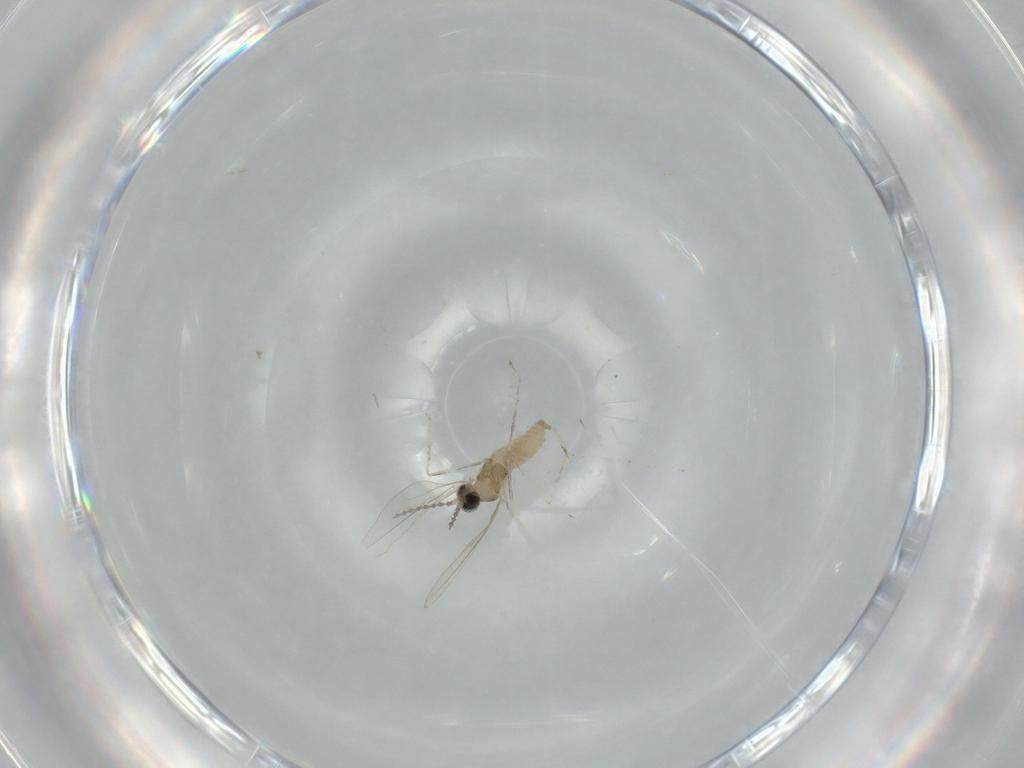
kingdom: Animalia
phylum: Arthropoda
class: Insecta
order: Diptera
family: Cecidomyiidae
